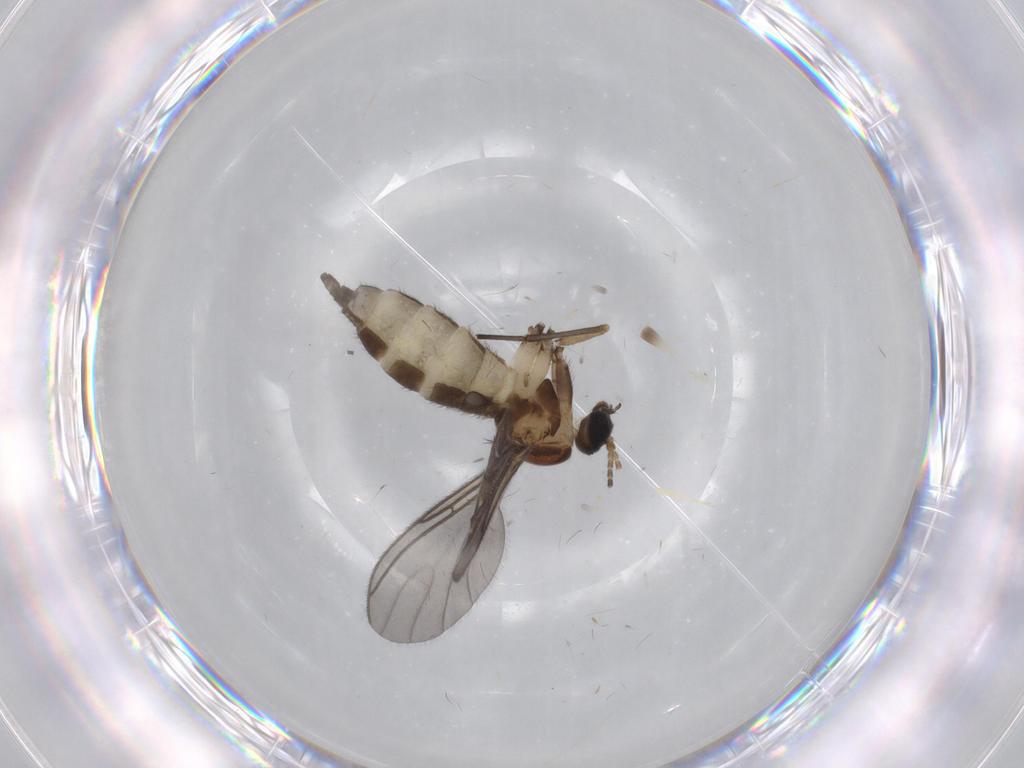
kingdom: Animalia
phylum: Arthropoda
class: Insecta
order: Diptera
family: Sciaridae
